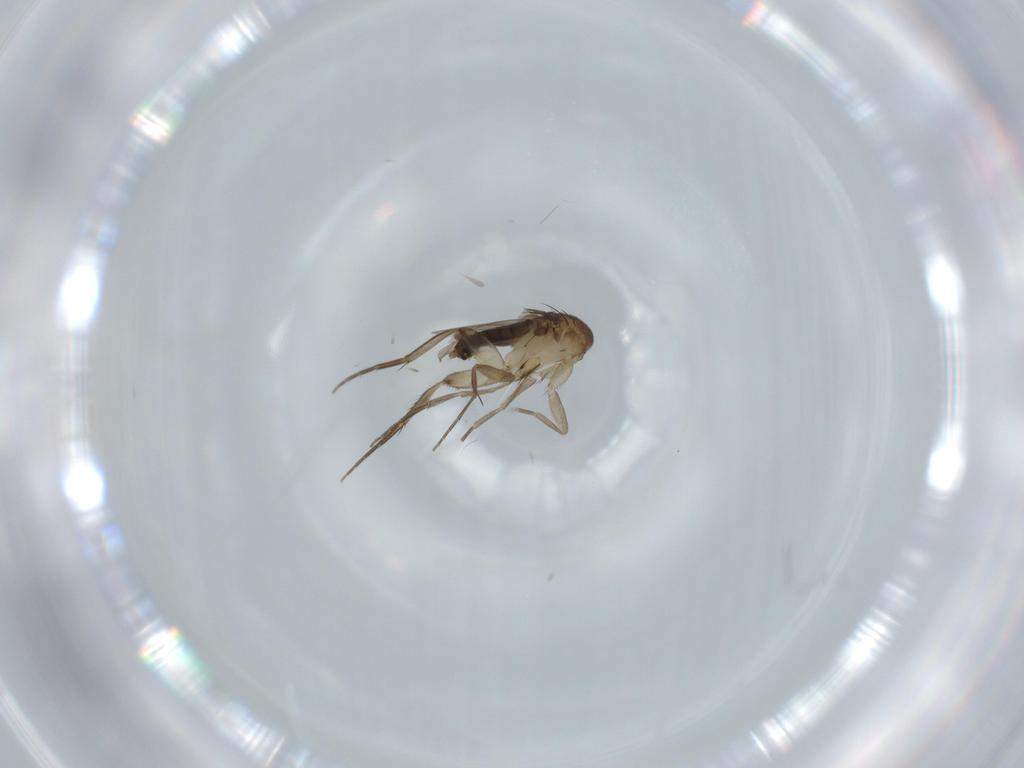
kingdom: Animalia
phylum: Arthropoda
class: Insecta
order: Diptera
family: Phoridae
